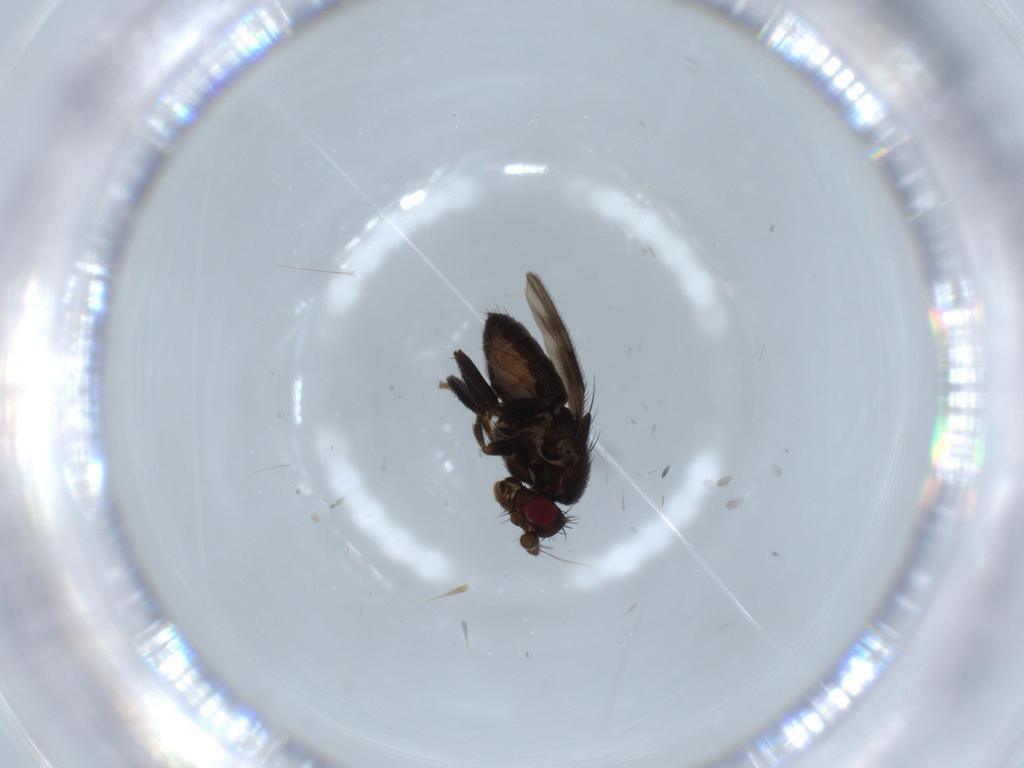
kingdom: Animalia
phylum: Arthropoda
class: Insecta
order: Diptera
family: Sphaeroceridae
